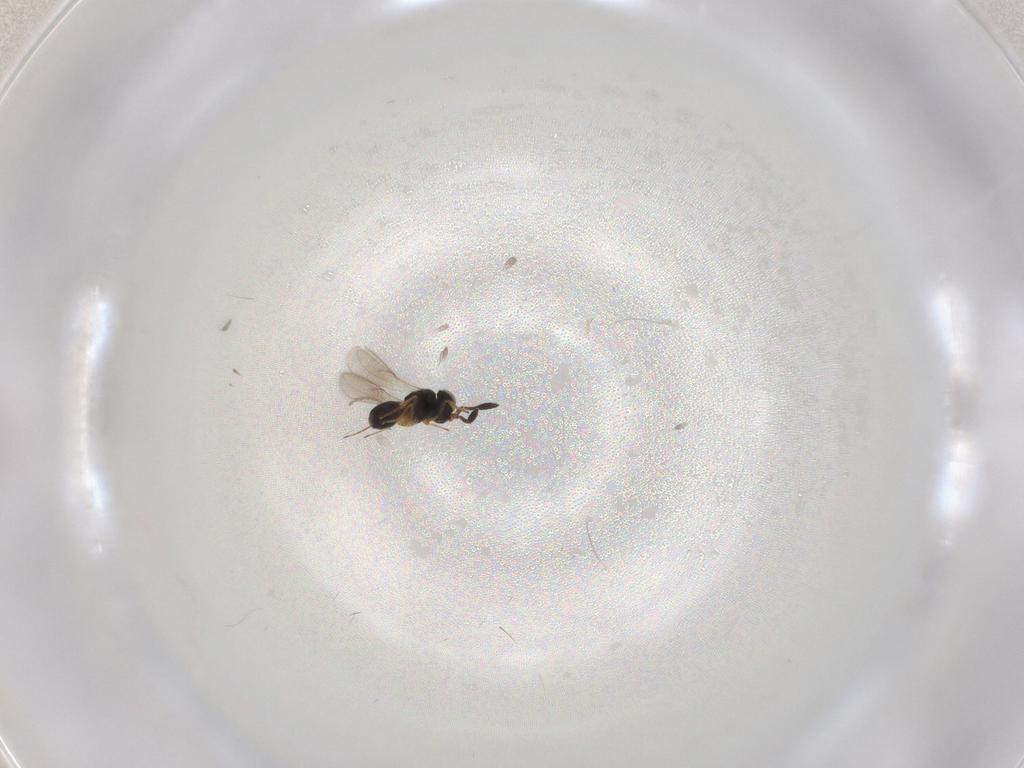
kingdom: Animalia
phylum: Arthropoda
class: Insecta
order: Hymenoptera
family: Scelionidae
